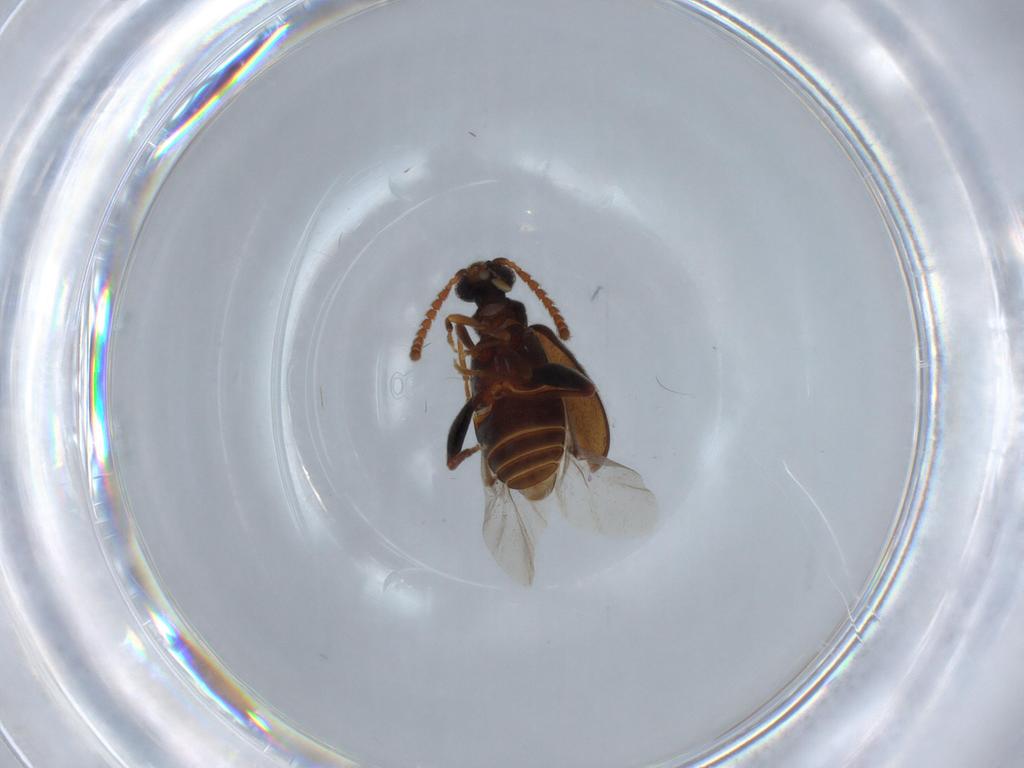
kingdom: Animalia
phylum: Arthropoda
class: Insecta
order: Coleoptera
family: Aderidae
